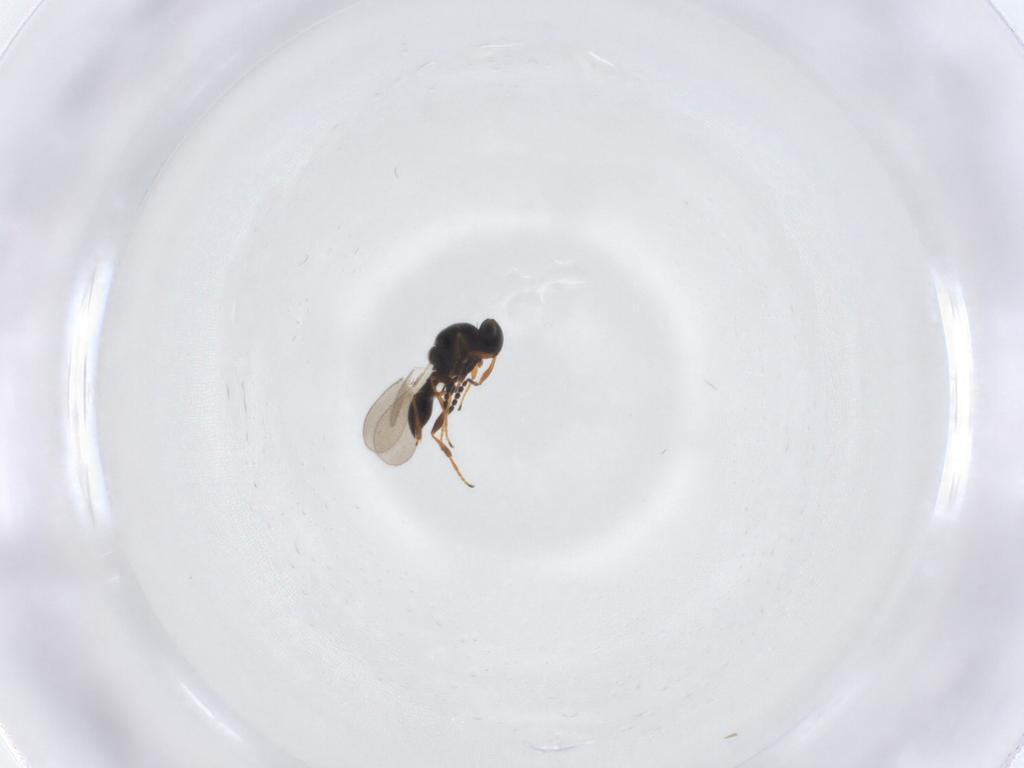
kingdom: Animalia
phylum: Arthropoda
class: Insecta
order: Hymenoptera
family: Platygastridae
